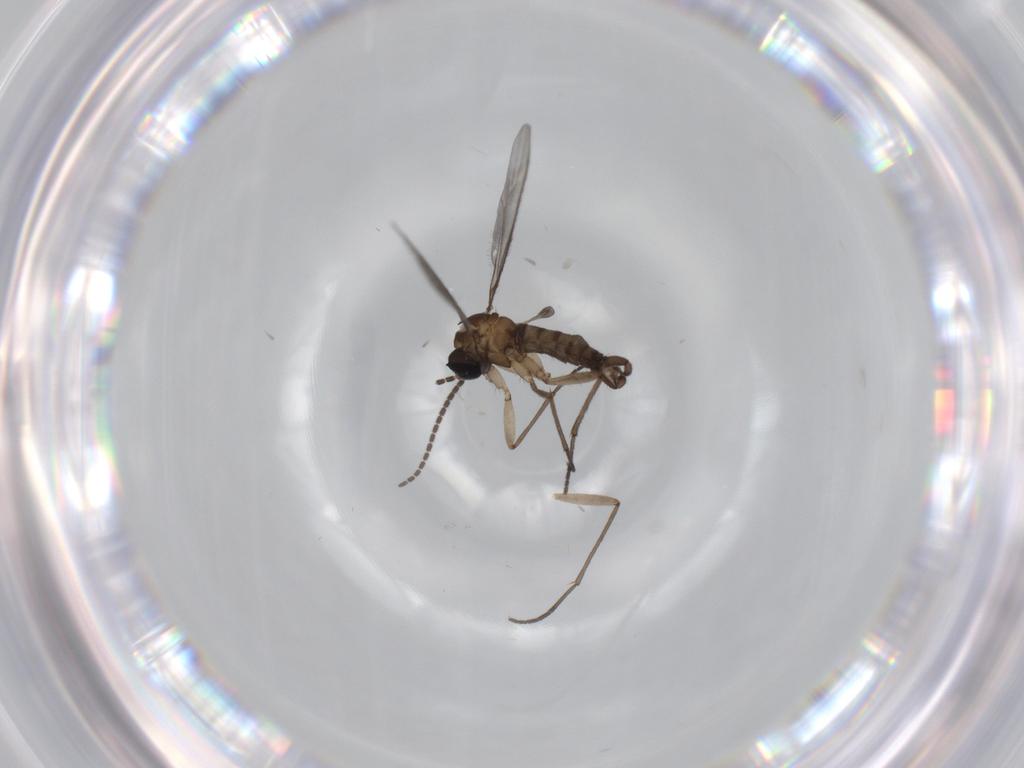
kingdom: Animalia
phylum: Arthropoda
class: Insecta
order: Diptera
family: Sciaridae
